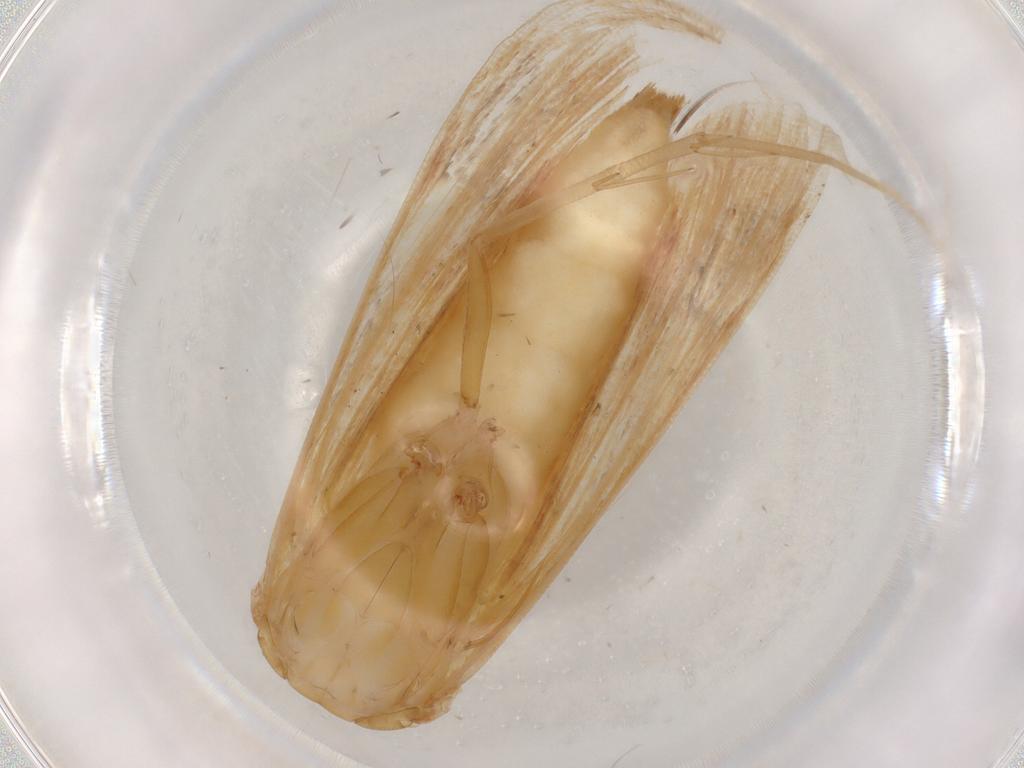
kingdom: Animalia
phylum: Arthropoda
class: Insecta
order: Lepidoptera
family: Crambidae
